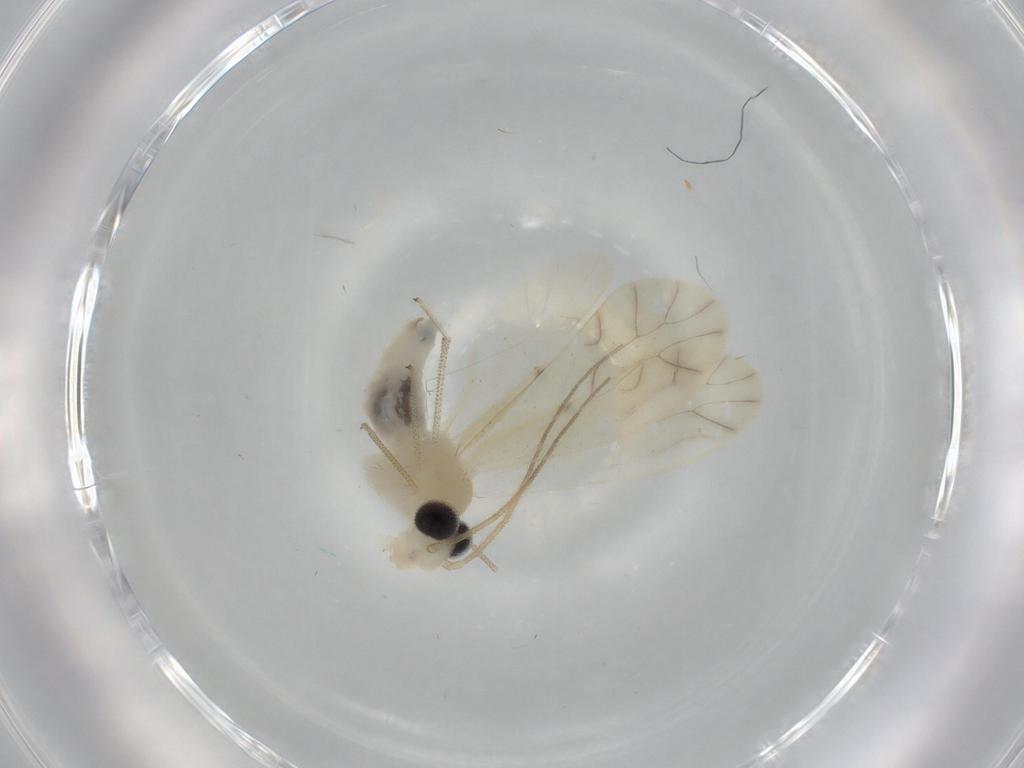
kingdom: Animalia
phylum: Arthropoda
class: Insecta
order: Psocodea
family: Caeciliusidae
